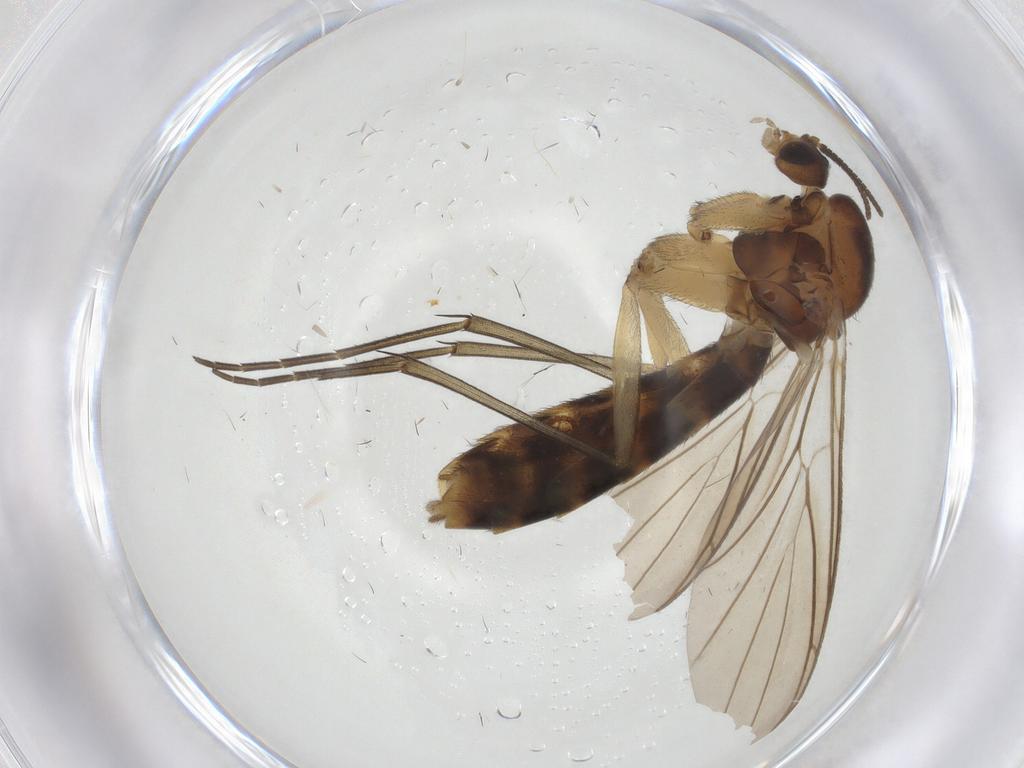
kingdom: Animalia
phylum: Arthropoda
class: Insecta
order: Diptera
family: Keroplatidae
